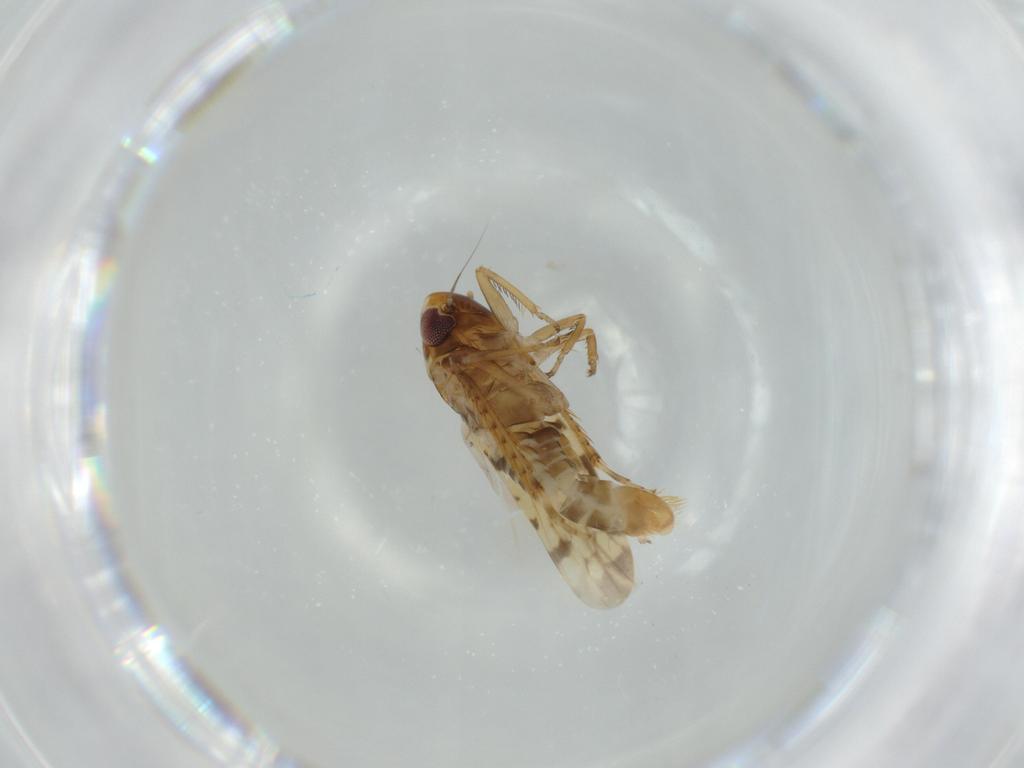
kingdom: Animalia
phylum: Arthropoda
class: Insecta
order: Hemiptera
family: Cicadellidae
